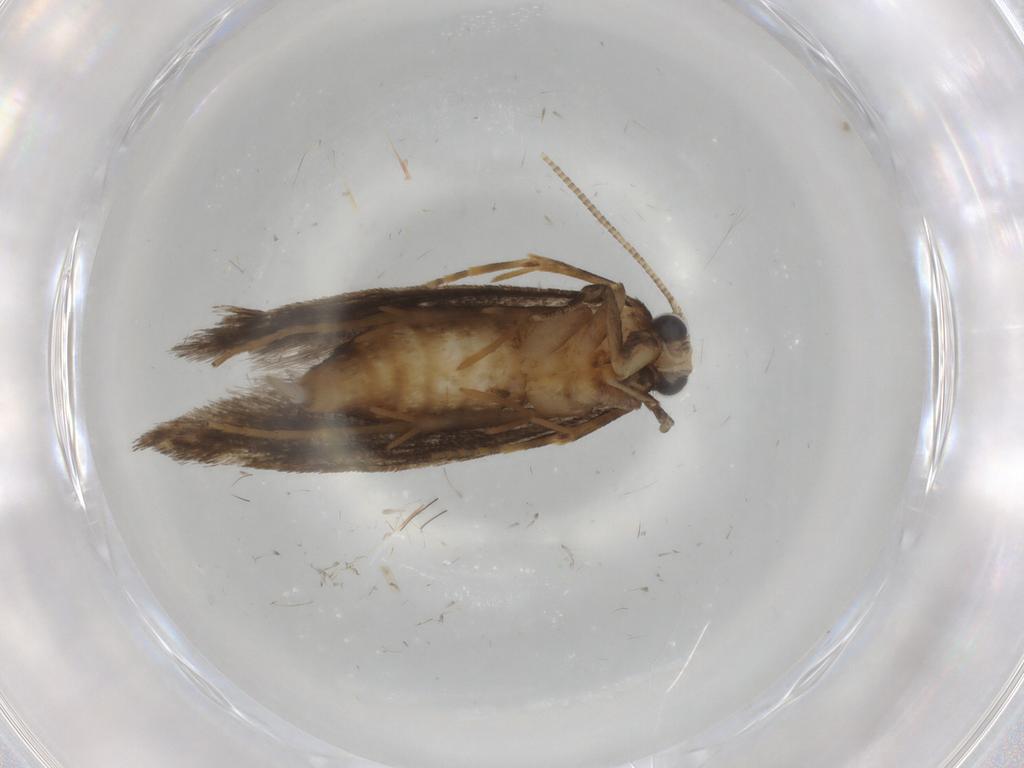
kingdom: Animalia
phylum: Arthropoda
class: Insecta
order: Lepidoptera
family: Tineidae
